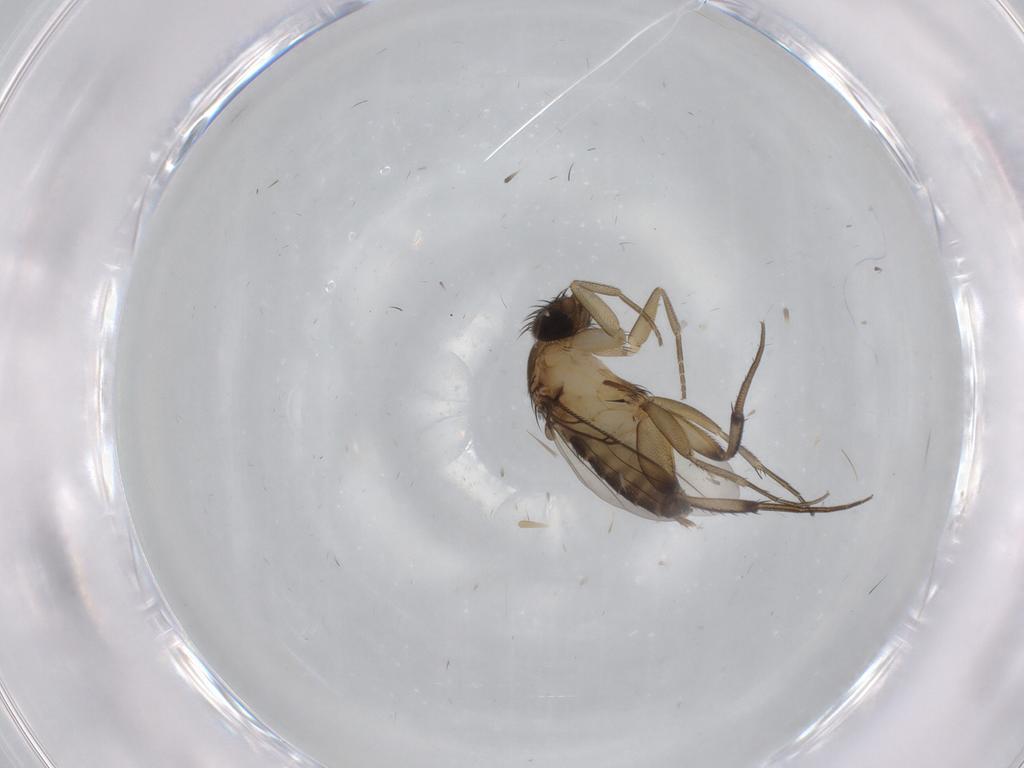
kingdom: Animalia
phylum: Arthropoda
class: Insecta
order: Diptera
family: Phoridae
